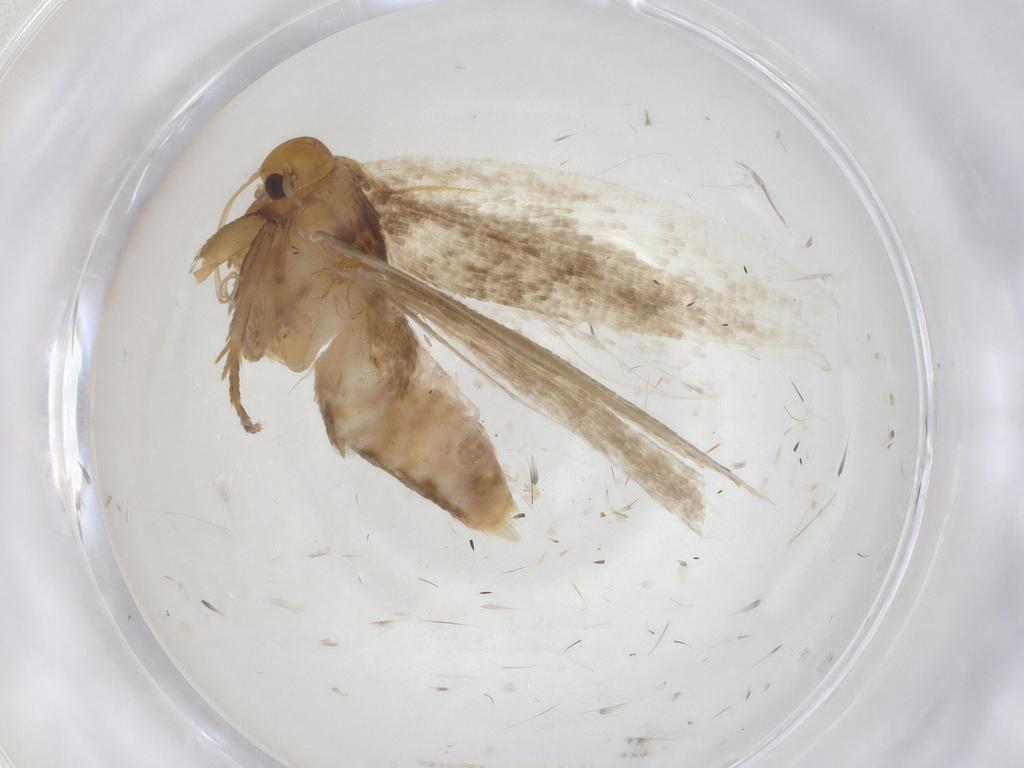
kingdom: Animalia
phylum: Arthropoda
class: Insecta
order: Lepidoptera
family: Gelechiidae
